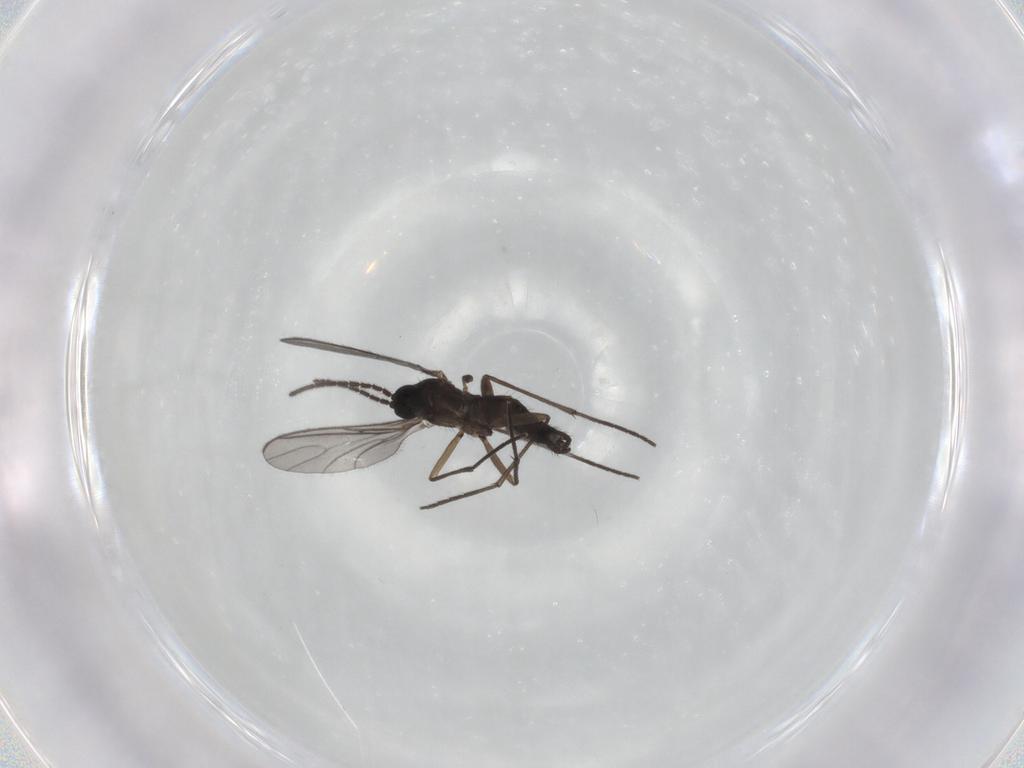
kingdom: Animalia
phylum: Arthropoda
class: Insecta
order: Diptera
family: Sciaridae
